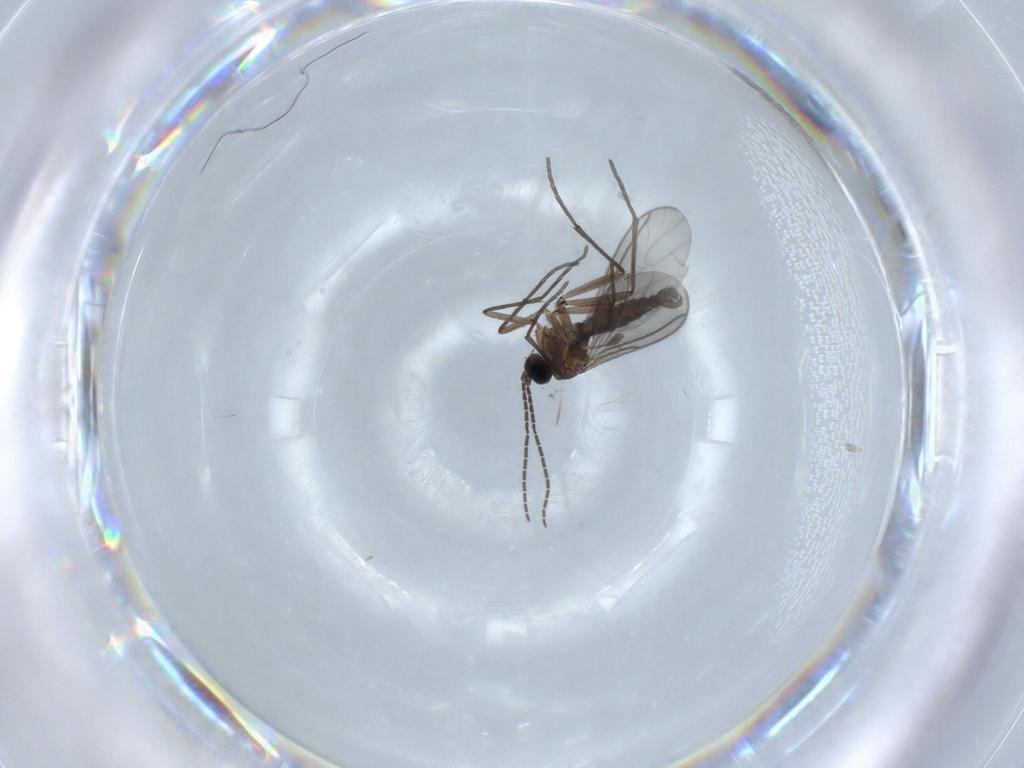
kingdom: Animalia
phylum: Arthropoda
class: Insecta
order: Diptera
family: Sciaridae
